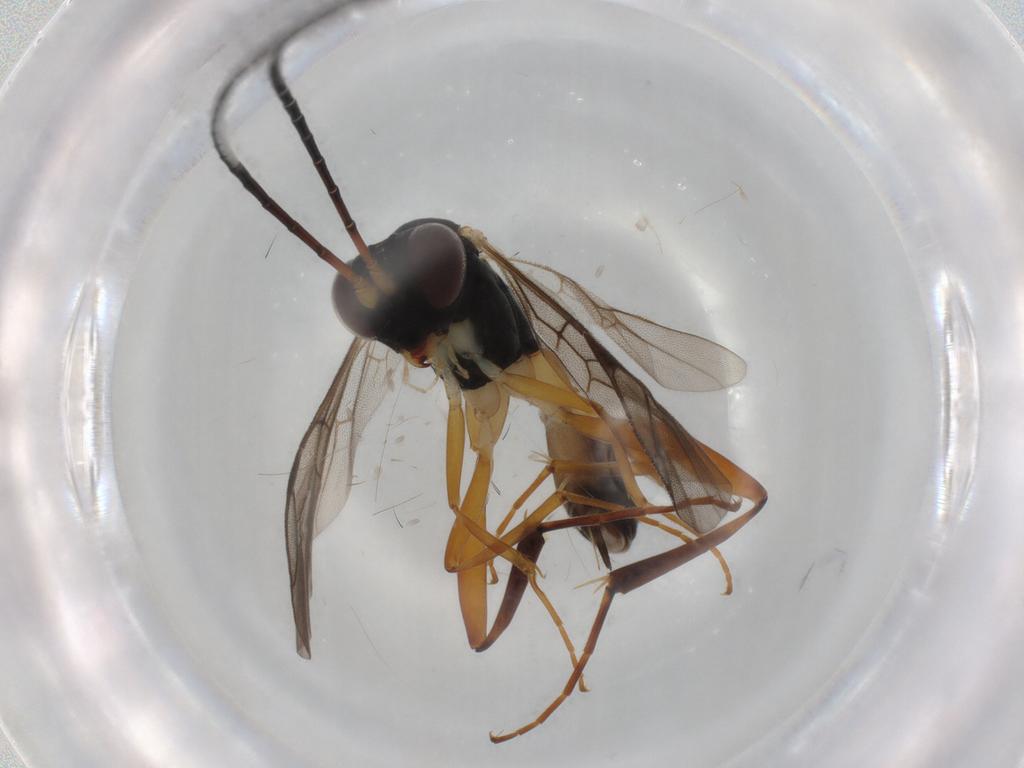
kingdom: Animalia
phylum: Arthropoda
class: Insecta
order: Hymenoptera
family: Ichneumonidae
